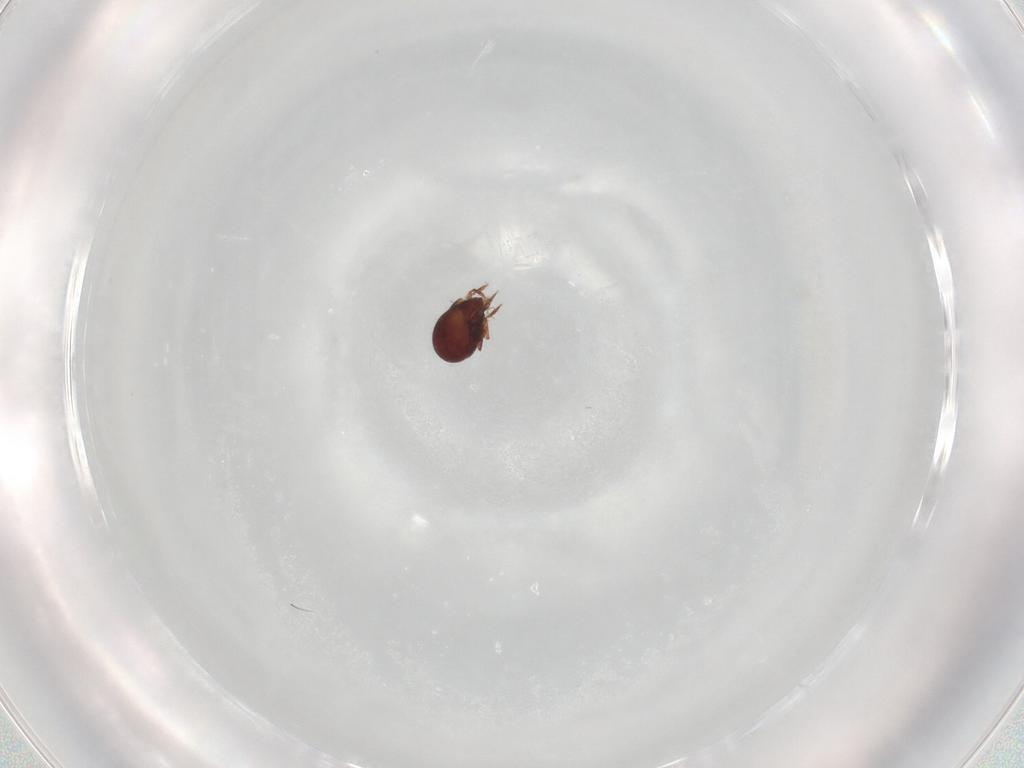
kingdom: Animalia
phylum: Arthropoda
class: Arachnida
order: Sarcoptiformes
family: Humerobatidae
